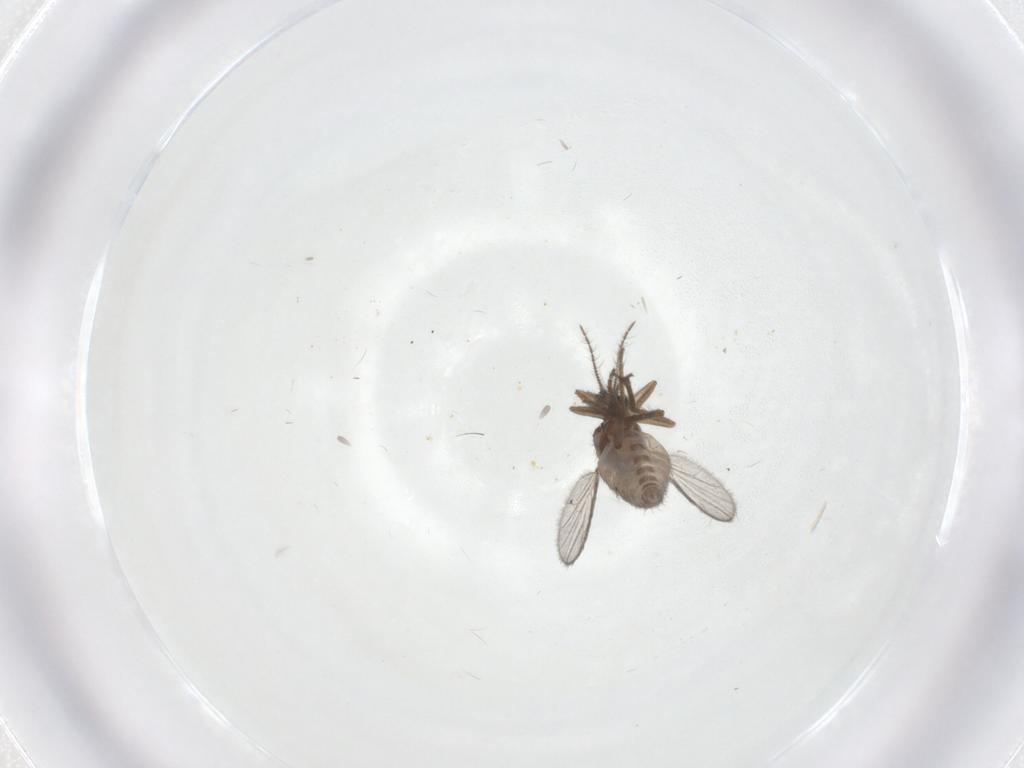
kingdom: Animalia
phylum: Arthropoda
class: Insecta
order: Diptera
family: Ceratopogonidae
